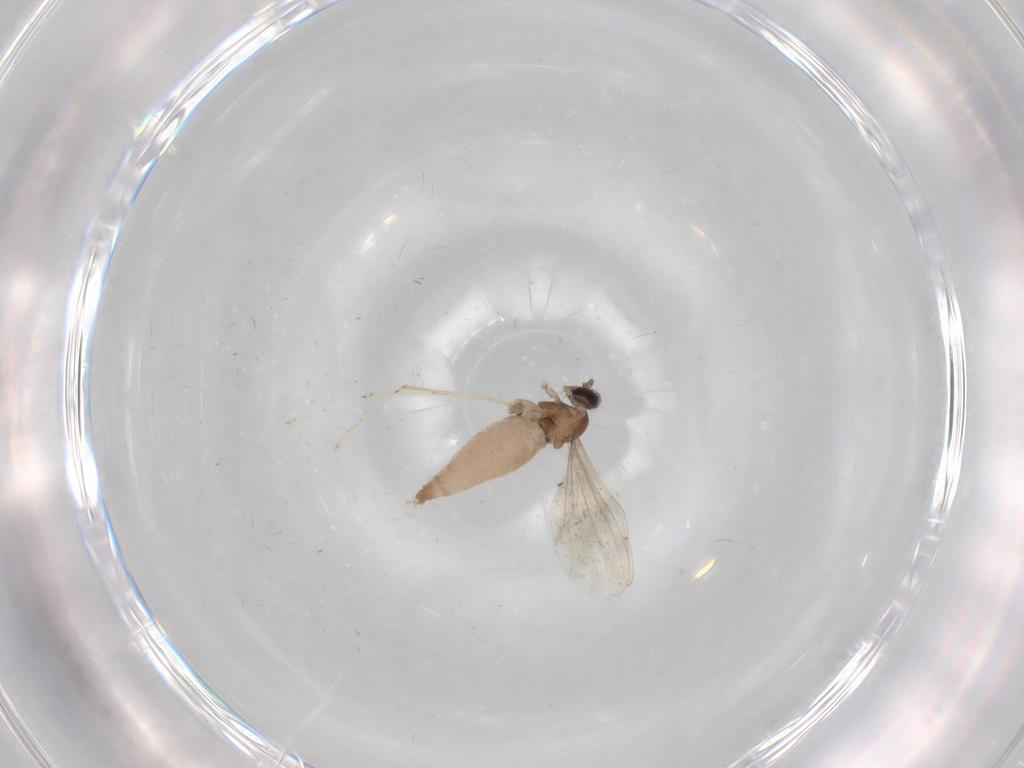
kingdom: Animalia
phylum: Arthropoda
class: Insecta
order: Diptera
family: Cecidomyiidae
